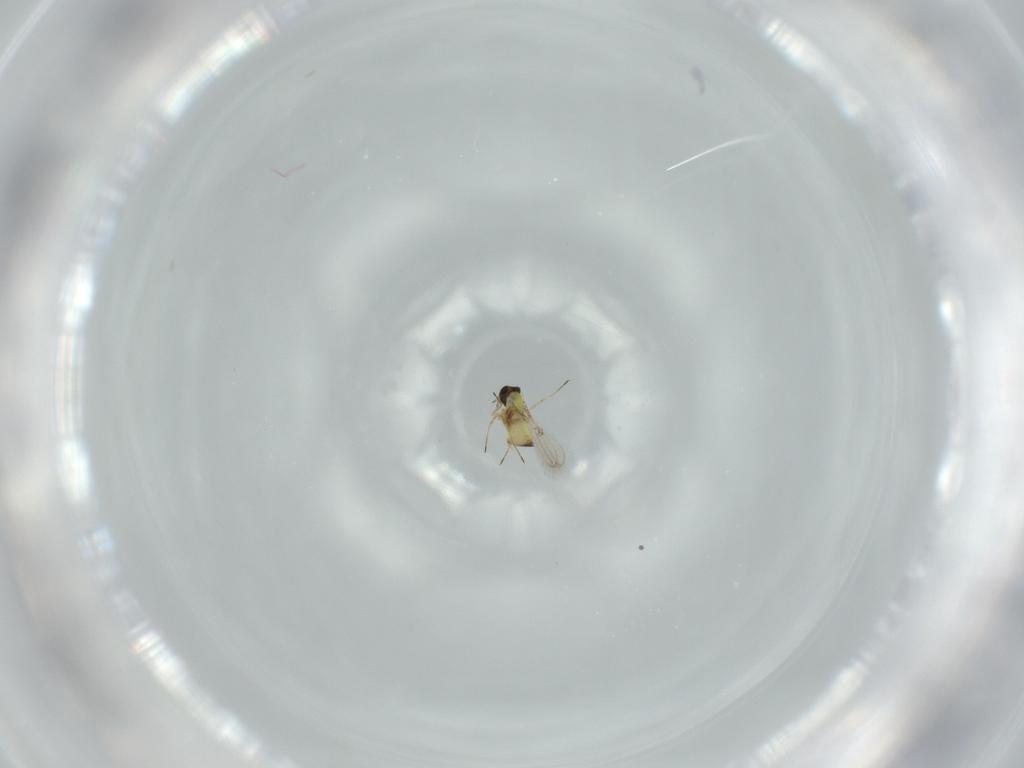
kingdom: Animalia
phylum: Arthropoda
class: Insecta
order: Hymenoptera
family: Trichogrammatidae
